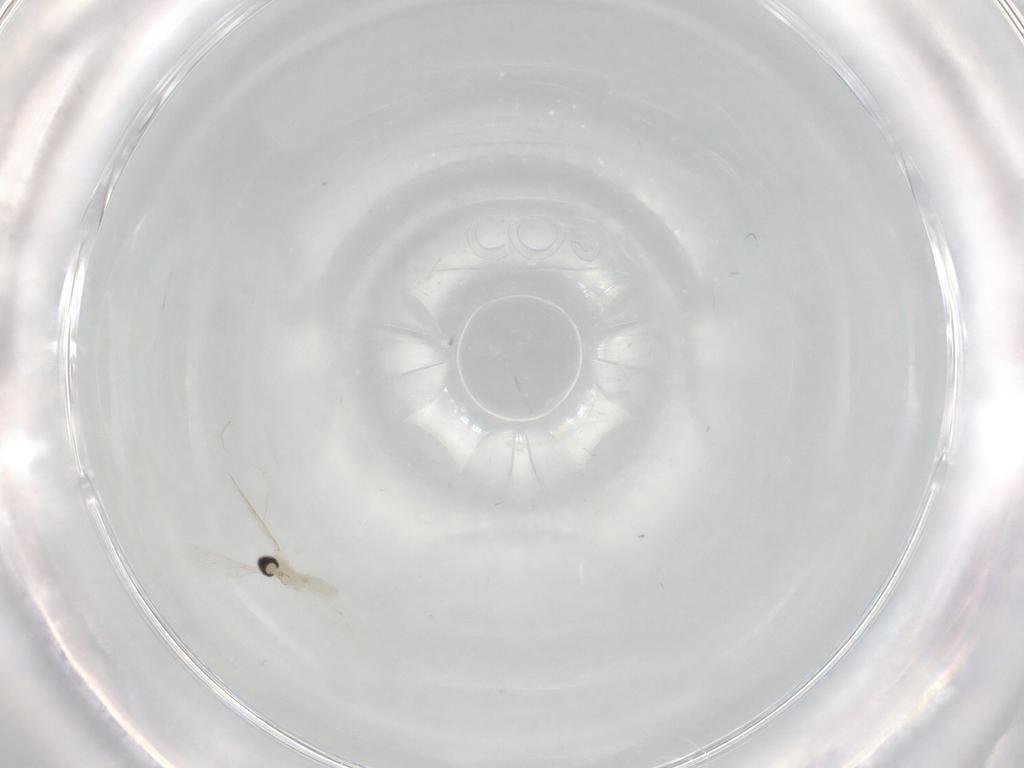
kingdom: Animalia
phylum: Arthropoda
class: Insecta
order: Diptera
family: Cecidomyiidae
